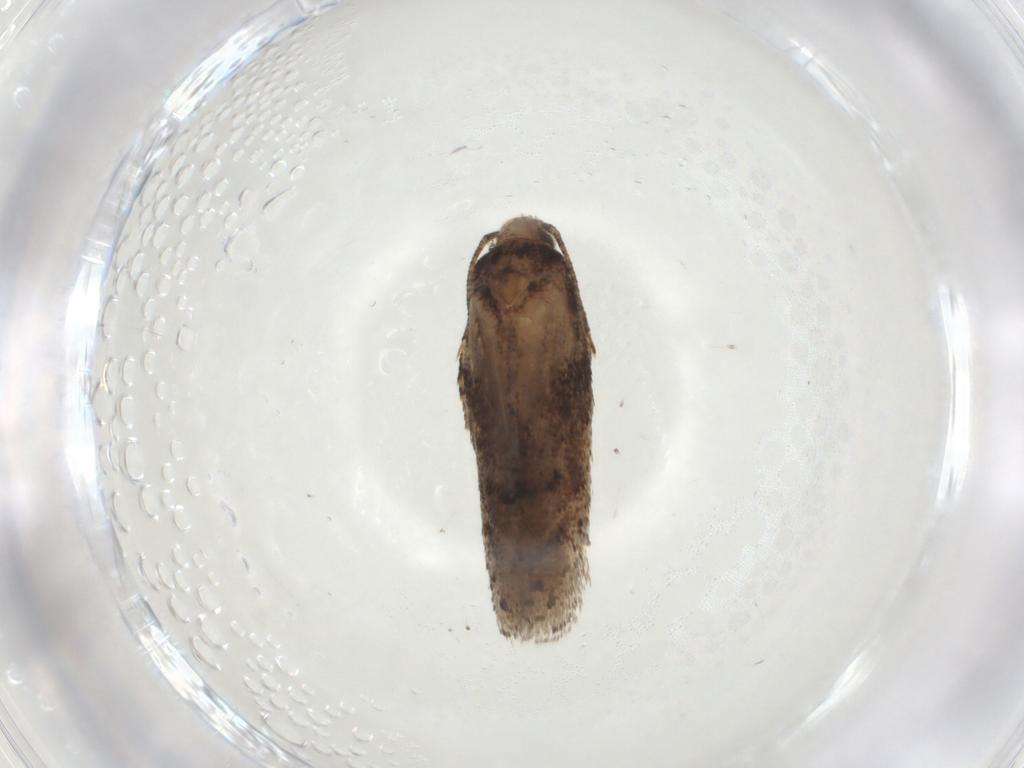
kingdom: Animalia
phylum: Arthropoda
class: Insecta
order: Lepidoptera
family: Gelechiidae
